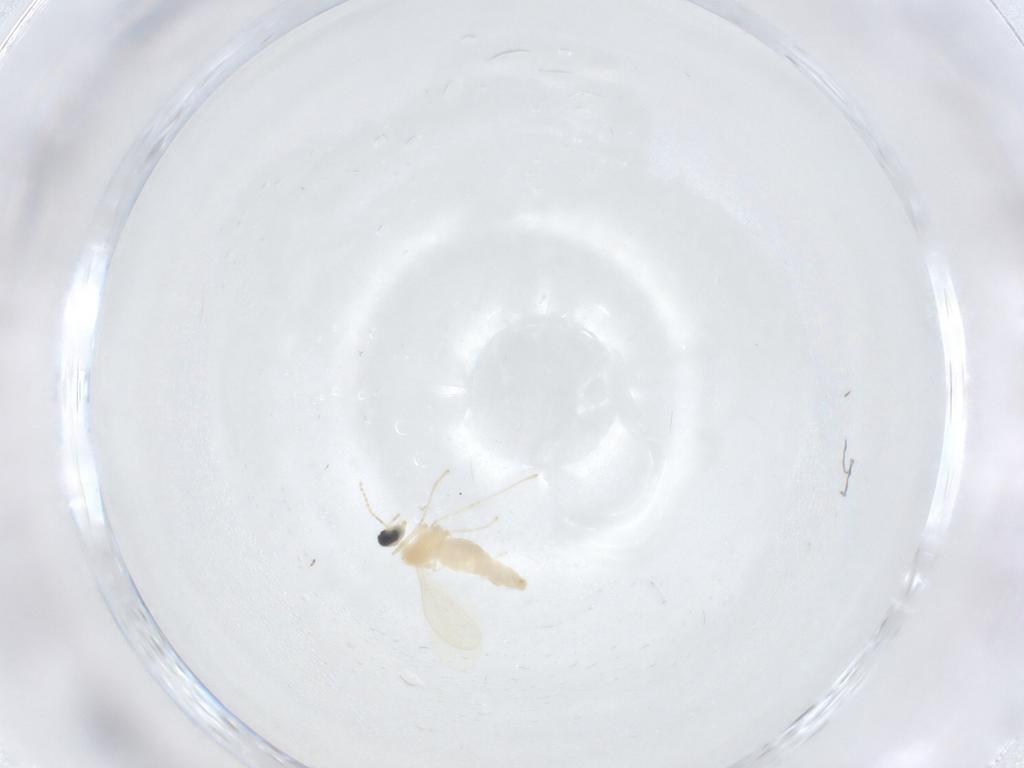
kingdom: Animalia
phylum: Arthropoda
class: Insecta
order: Diptera
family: Cecidomyiidae
